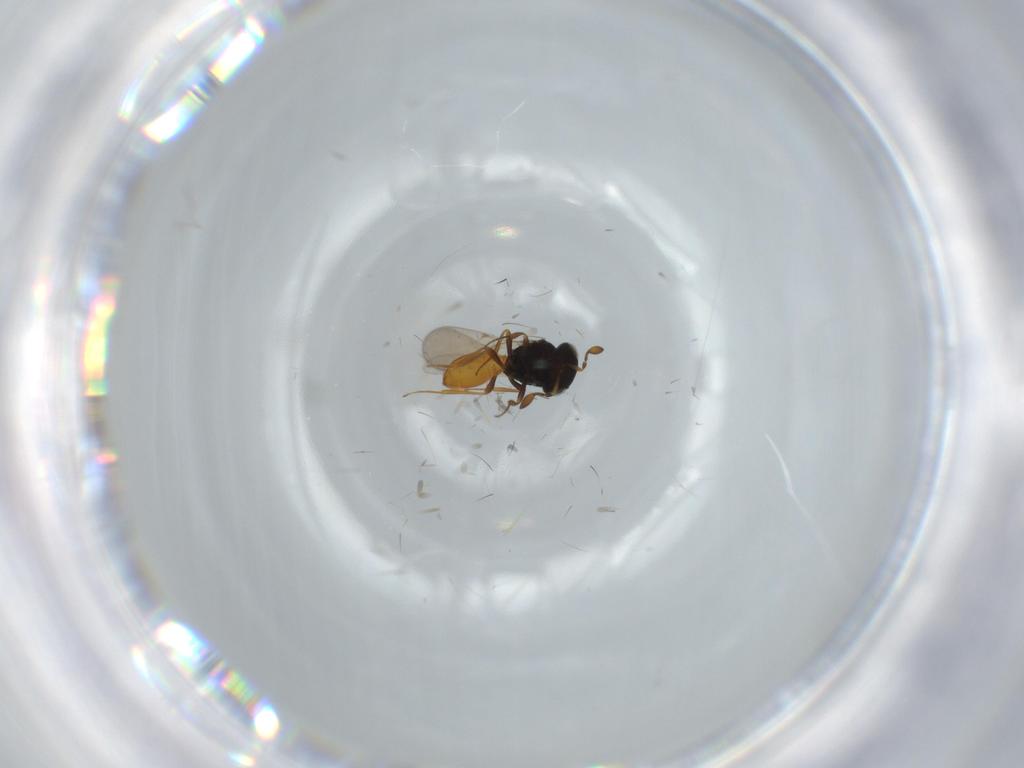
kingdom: Animalia
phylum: Arthropoda
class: Insecta
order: Hymenoptera
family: Scelionidae
